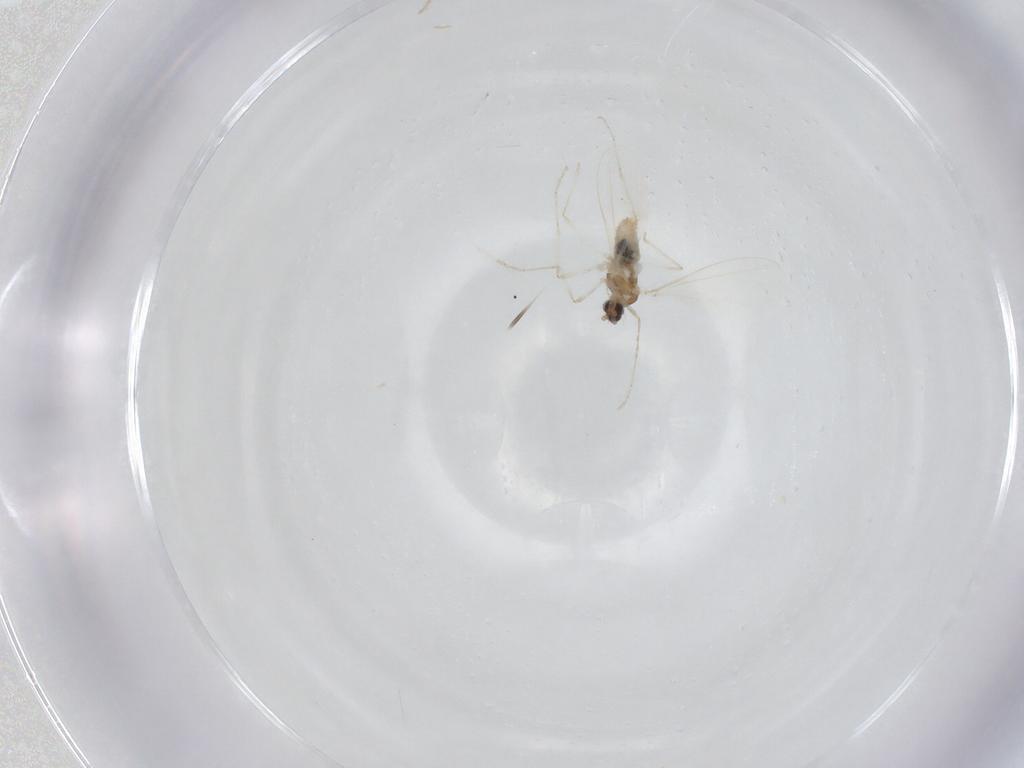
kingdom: Animalia
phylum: Arthropoda
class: Insecta
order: Diptera
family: Cecidomyiidae
